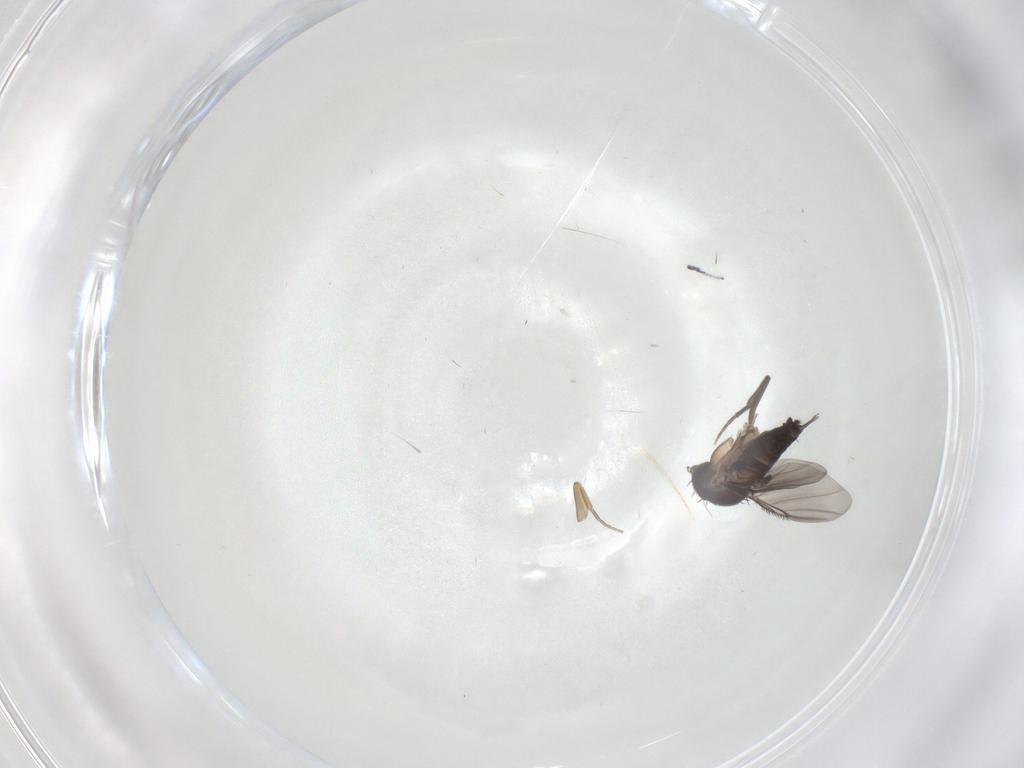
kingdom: Animalia
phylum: Arthropoda
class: Insecta
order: Diptera
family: Phoridae
